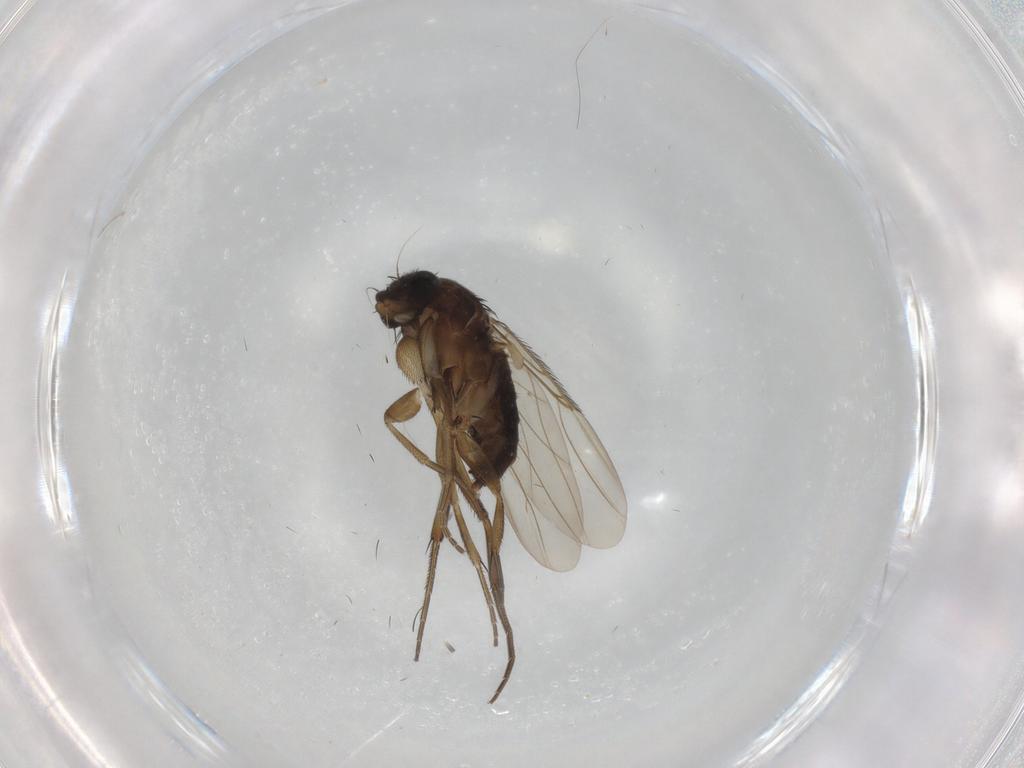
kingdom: Animalia
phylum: Arthropoda
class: Insecta
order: Diptera
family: Phoridae
